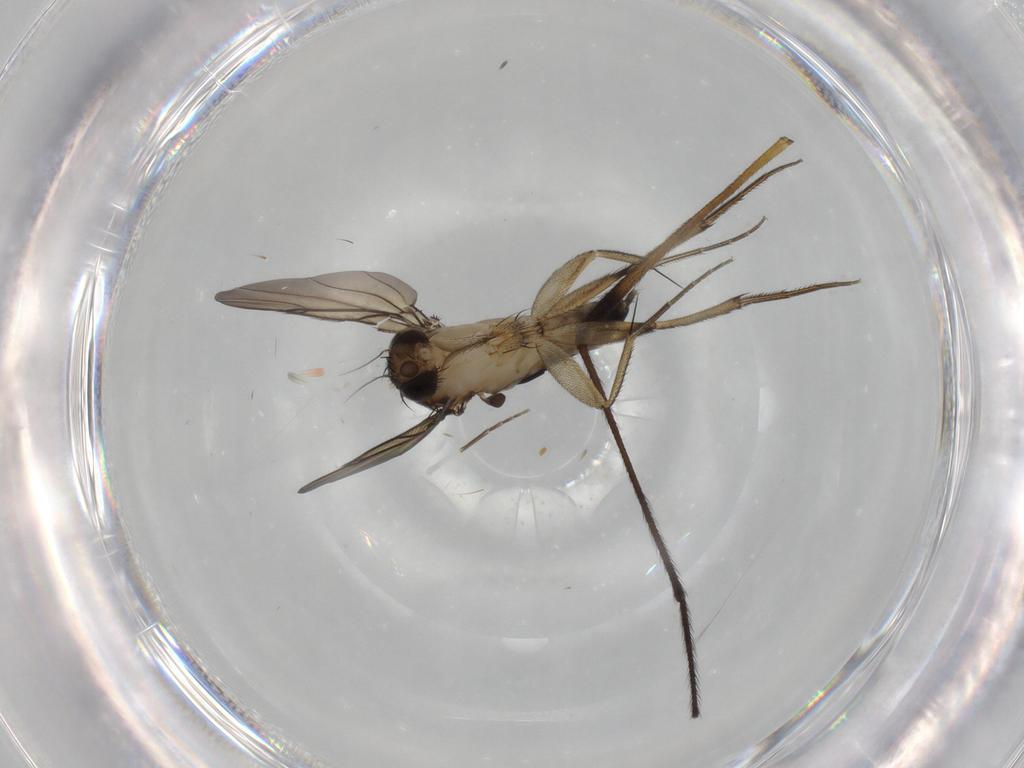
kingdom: Animalia
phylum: Arthropoda
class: Insecta
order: Diptera
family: Limoniidae
